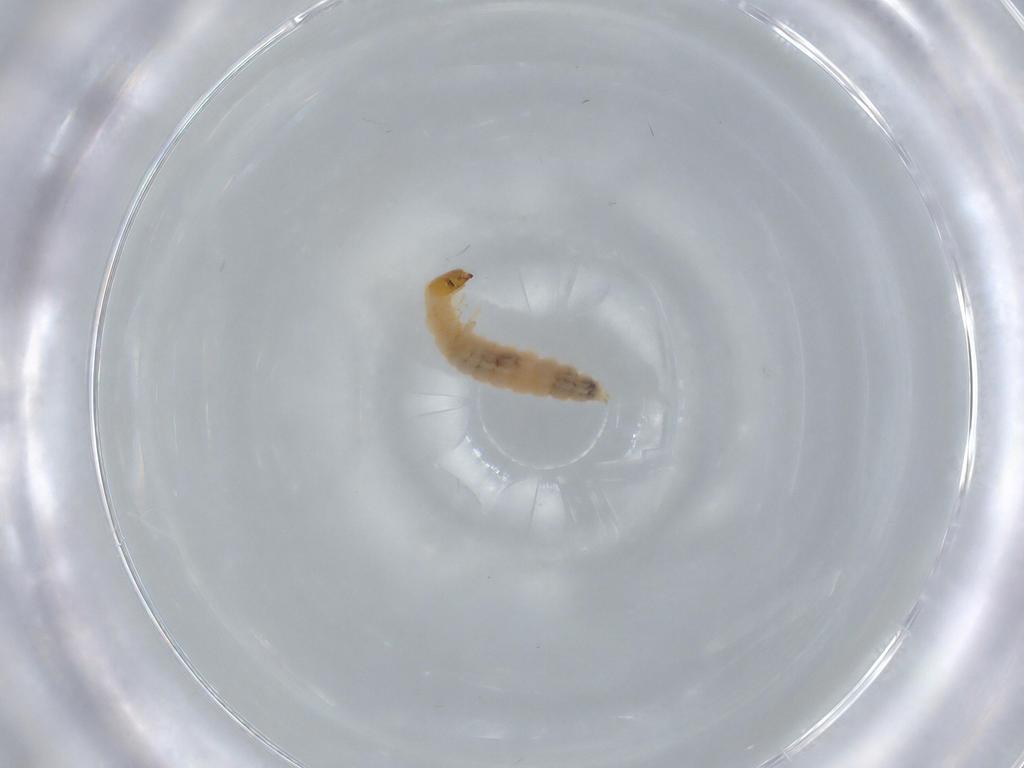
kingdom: Animalia
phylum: Arthropoda
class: Insecta
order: Coleoptera
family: Melyridae
